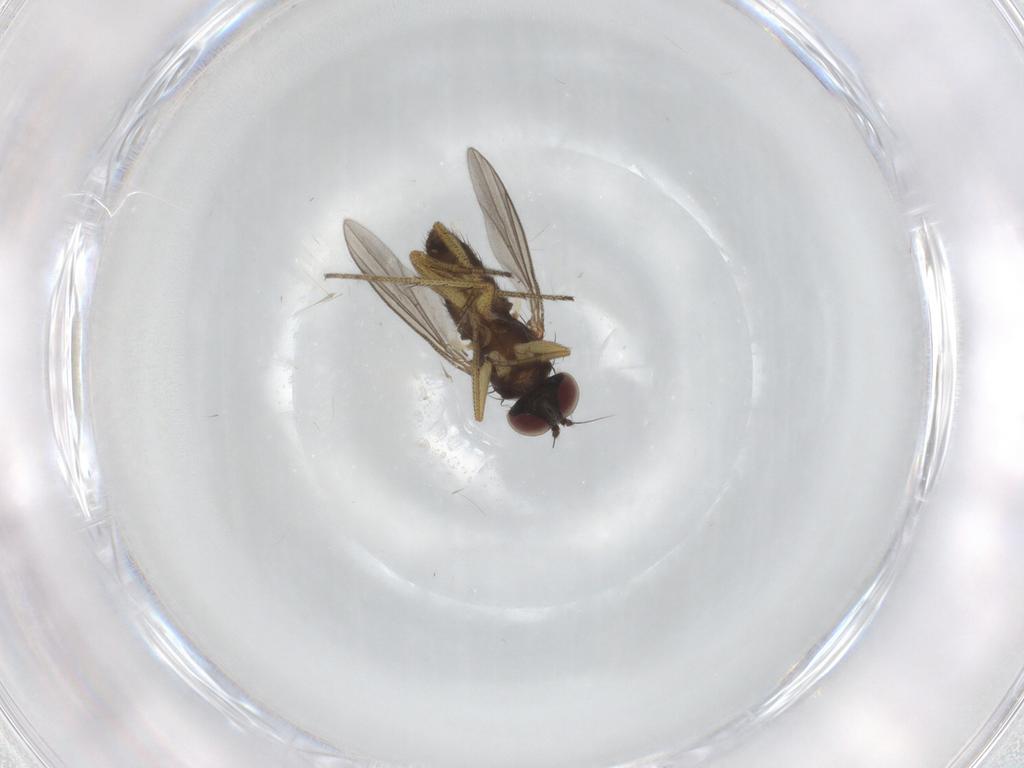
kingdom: Animalia
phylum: Arthropoda
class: Insecta
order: Diptera
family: Dolichopodidae
